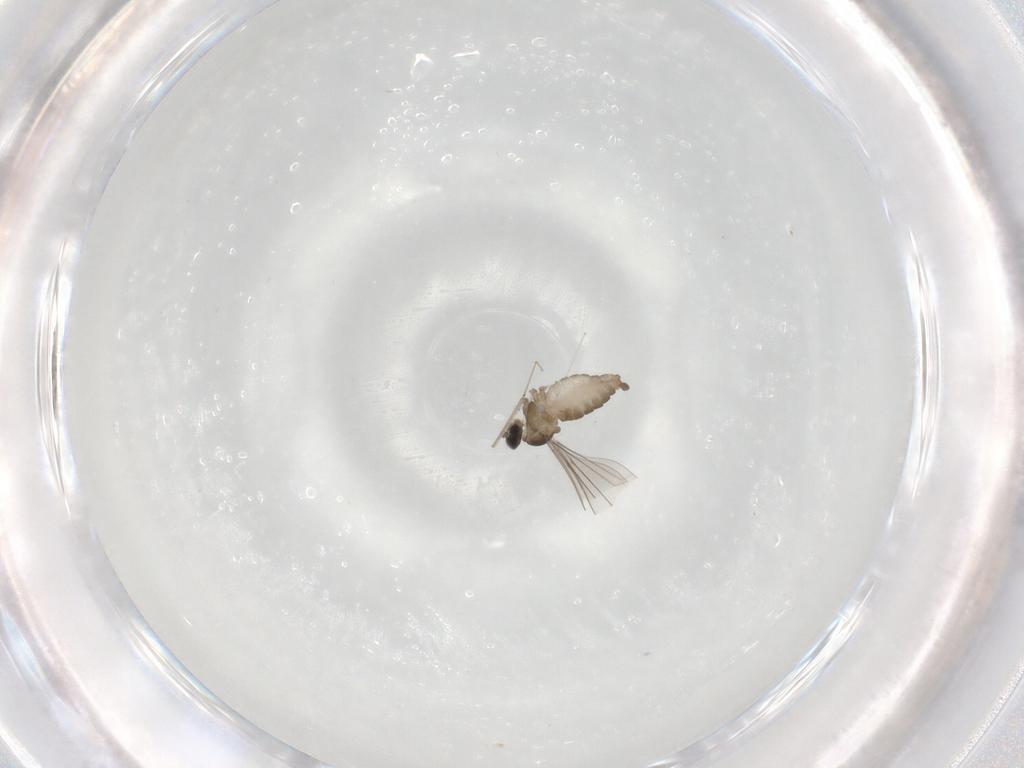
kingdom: Animalia
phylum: Arthropoda
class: Insecta
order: Diptera
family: Cecidomyiidae
